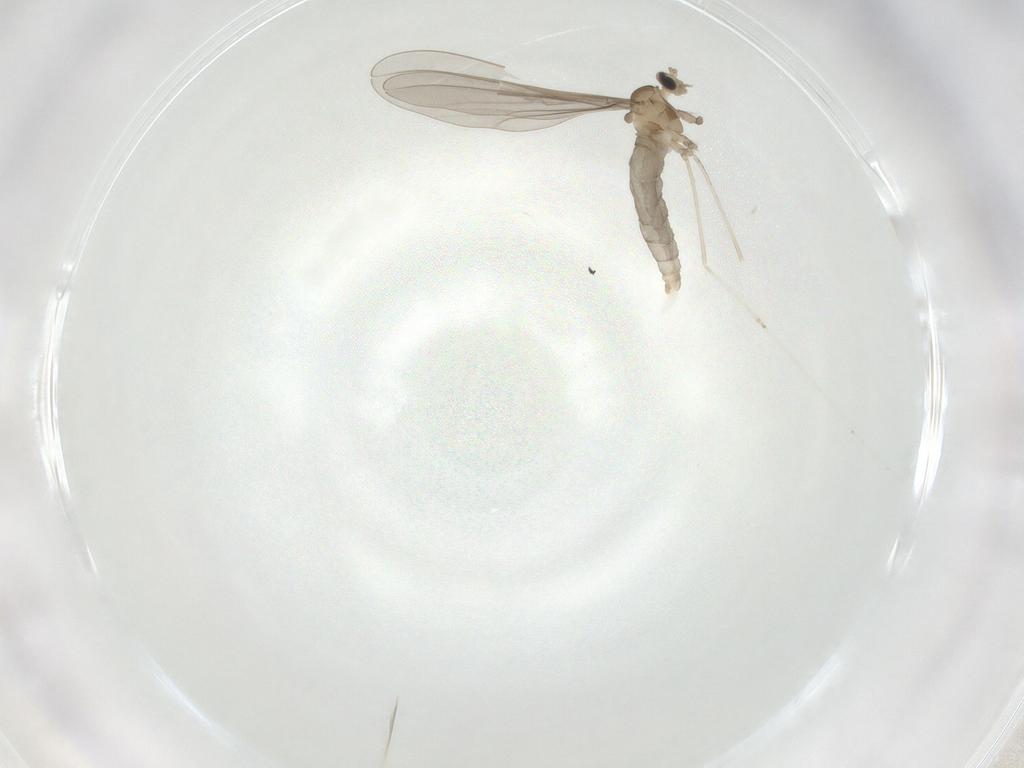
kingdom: Animalia
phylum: Arthropoda
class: Insecta
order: Diptera
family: Cecidomyiidae
